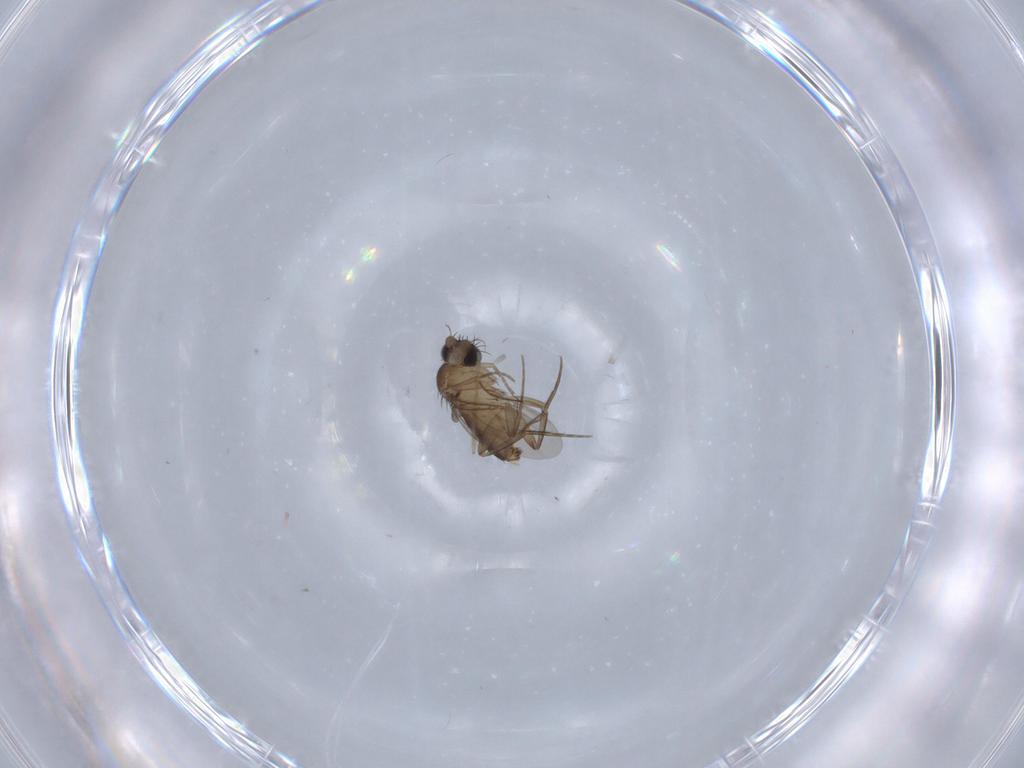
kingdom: Animalia
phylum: Arthropoda
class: Insecta
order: Diptera
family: Phoridae
